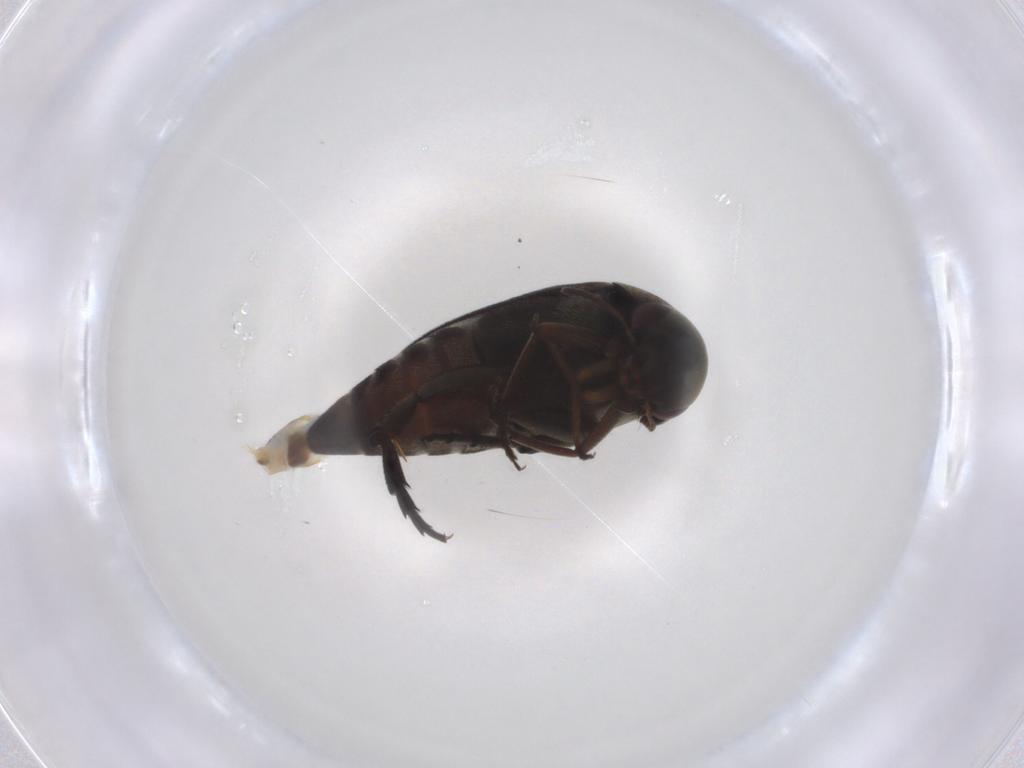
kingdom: Animalia
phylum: Arthropoda
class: Insecta
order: Coleoptera
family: Mordellidae
